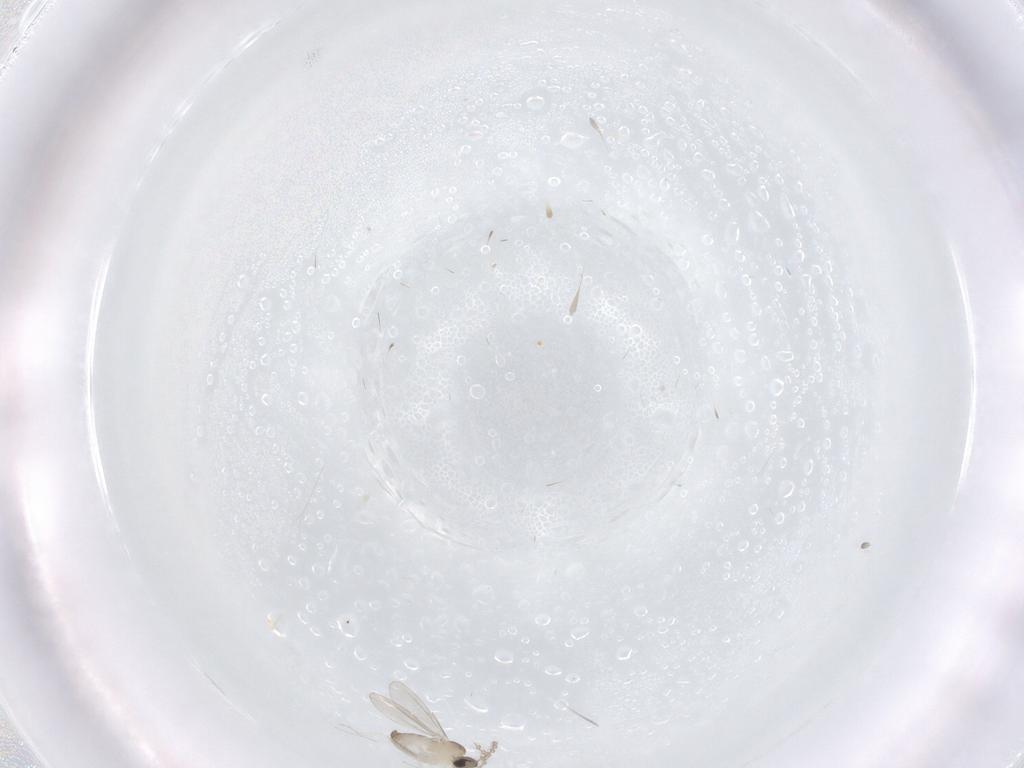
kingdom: Animalia
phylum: Arthropoda
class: Insecta
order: Diptera
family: Cecidomyiidae
